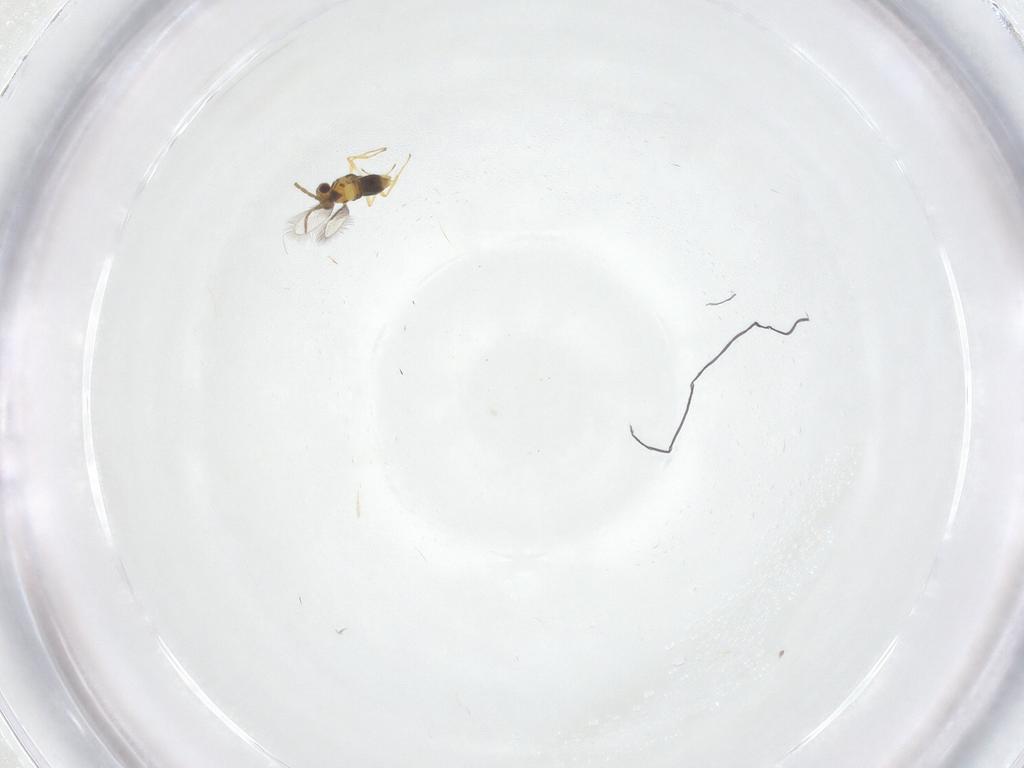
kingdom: Animalia
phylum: Arthropoda
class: Insecta
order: Hymenoptera
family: Aphelinidae
